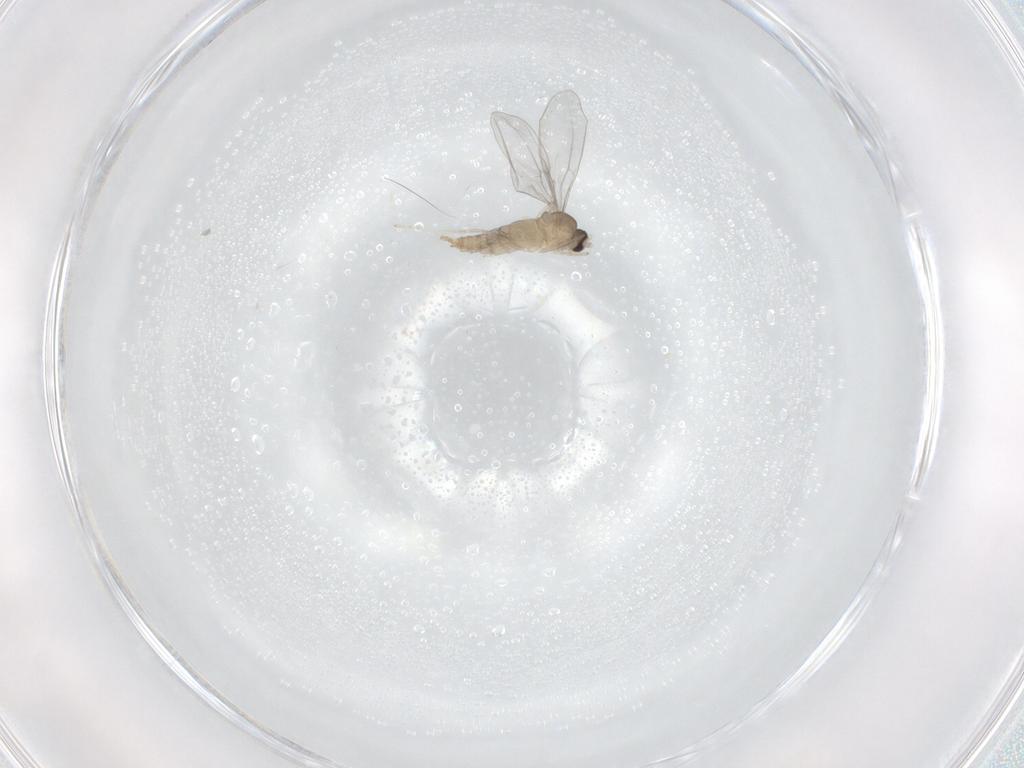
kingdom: Animalia
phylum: Arthropoda
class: Insecta
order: Diptera
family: Cecidomyiidae
